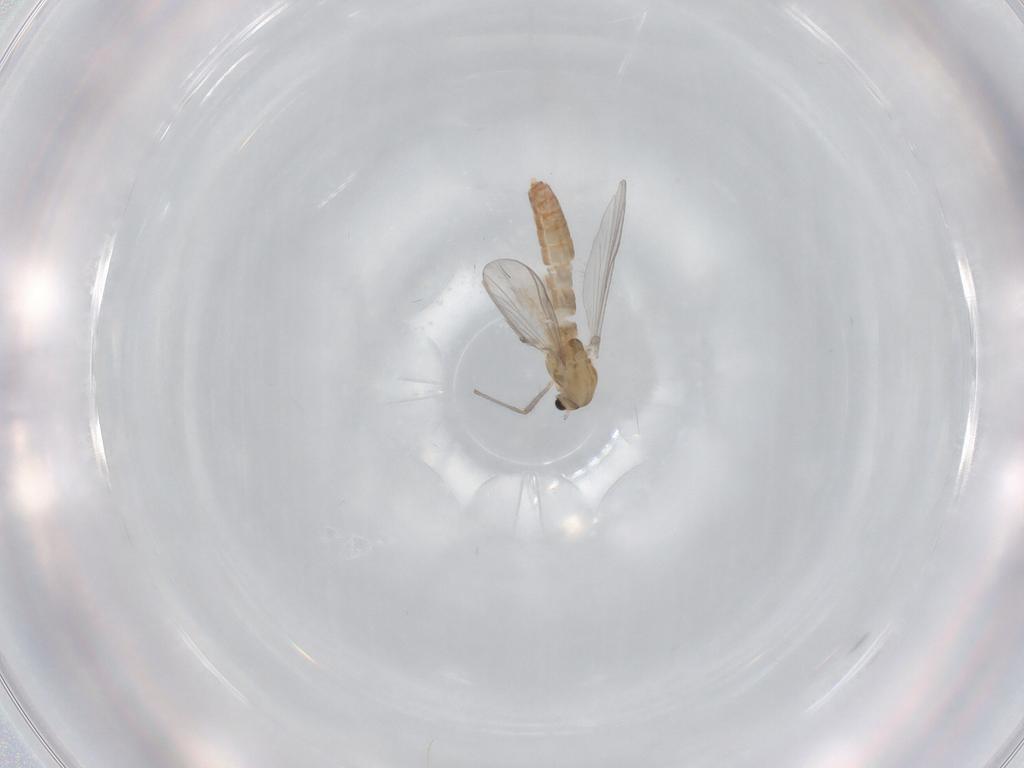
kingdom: Animalia
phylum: Arthropoda
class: Insecta
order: Diptera
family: Chironomidae
